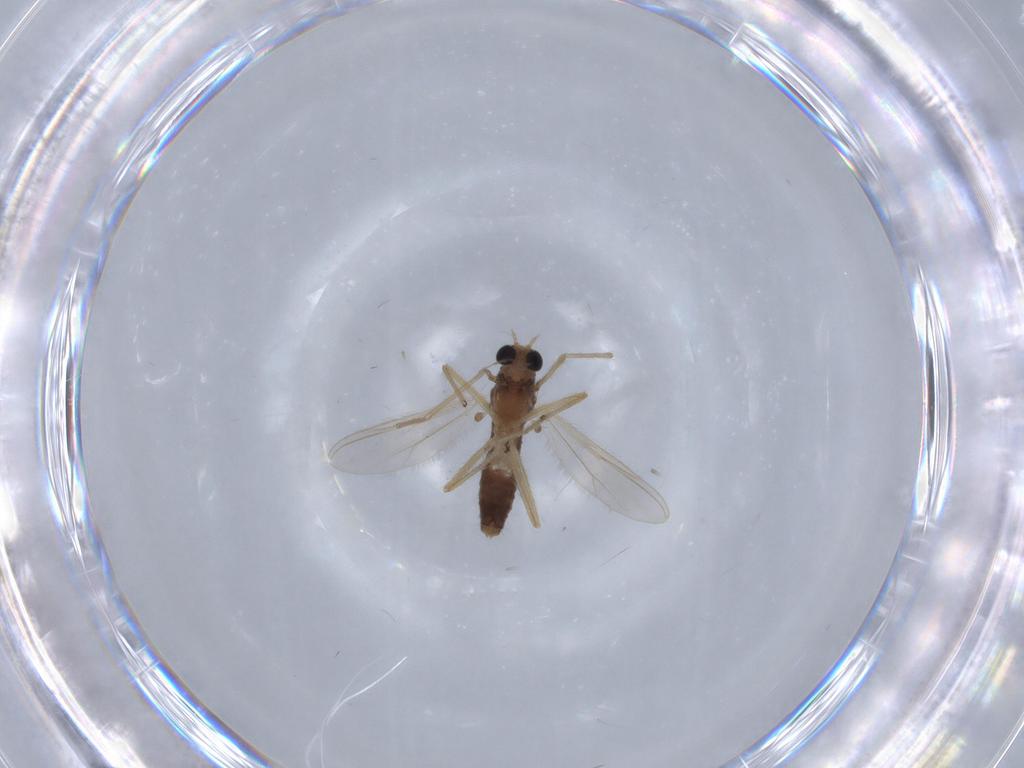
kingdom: Animalia
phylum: Arthropoda
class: Insecta
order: Diptera
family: Chironomidae
